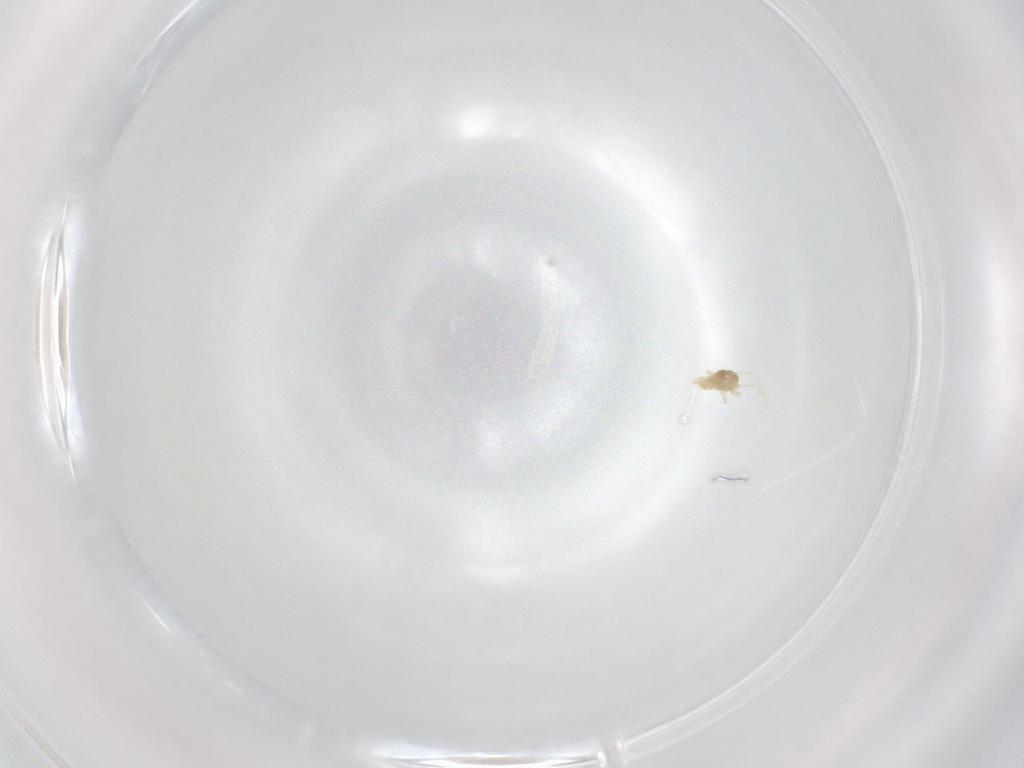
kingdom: Animalia
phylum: Arthropoda
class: Arachnida
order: Trombidiformes
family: Eupodidae
